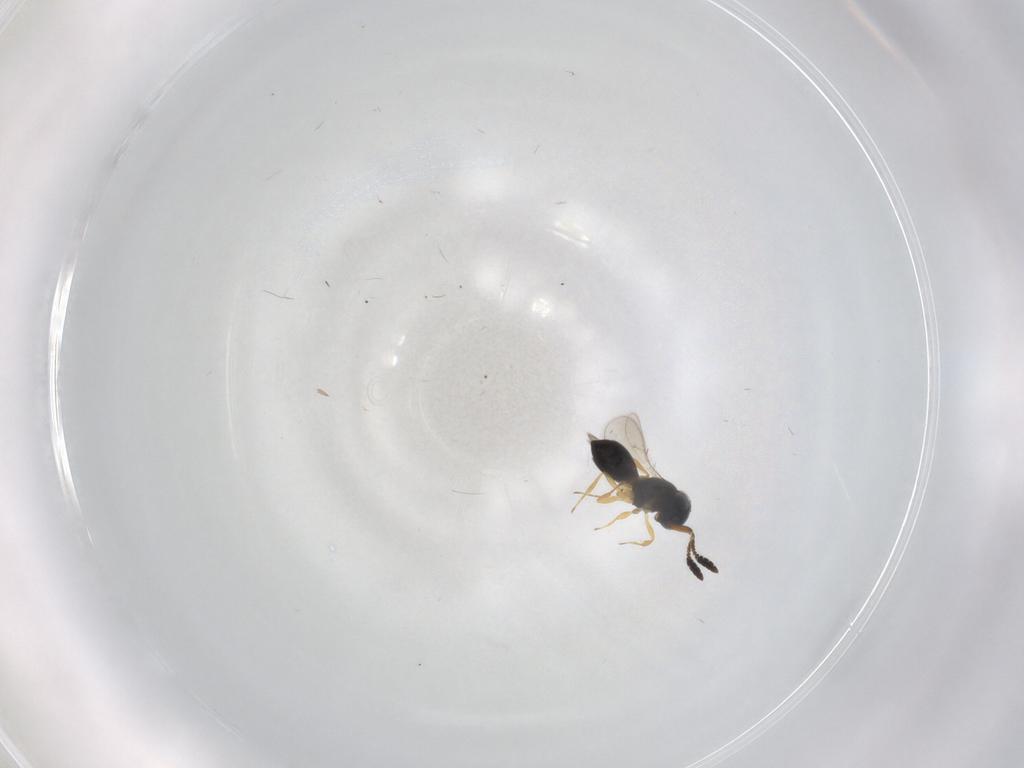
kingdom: Animalia
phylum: Arthropoda
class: Insecta
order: Hymenoptera
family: Scelionidae
